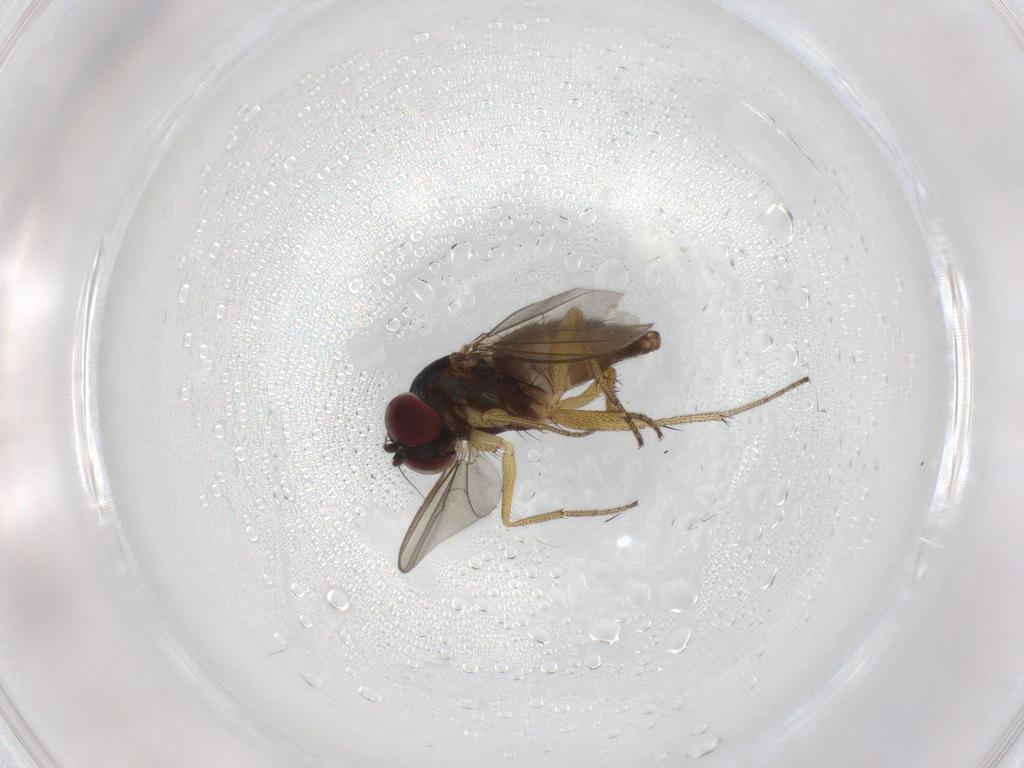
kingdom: Animalia
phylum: Arthropoda
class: Insecta
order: Diptera
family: Dolichopodidae
